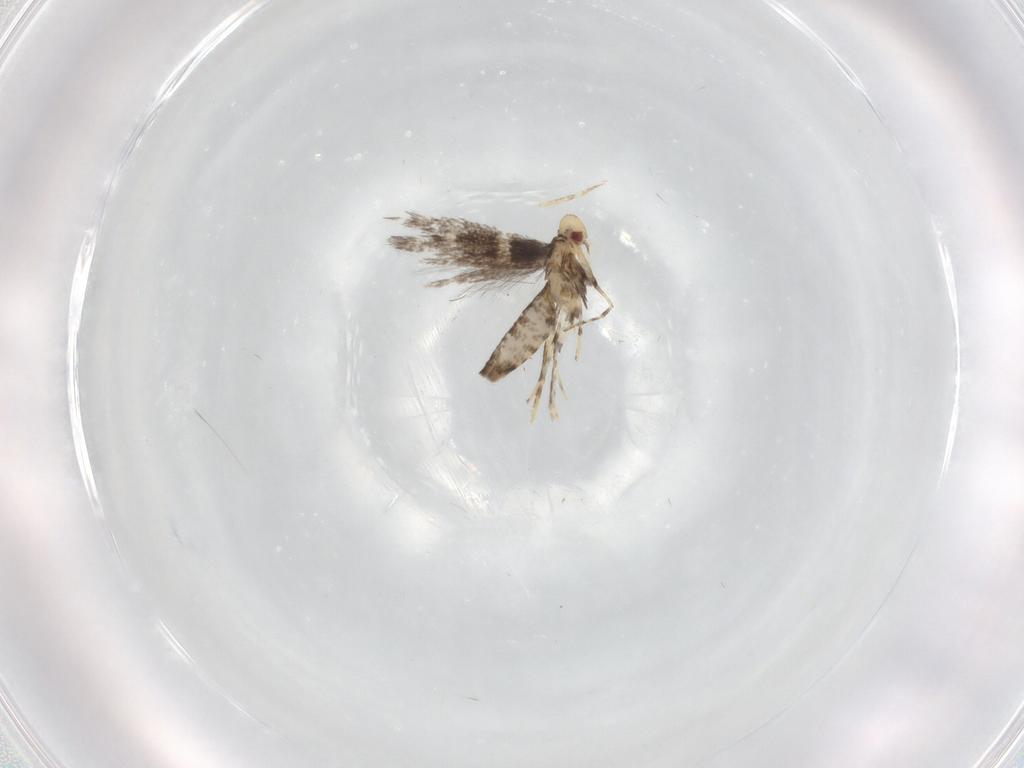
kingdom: Animalia
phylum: Arthropoda
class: Insecta
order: Lepidoptera
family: Gracillariidae
